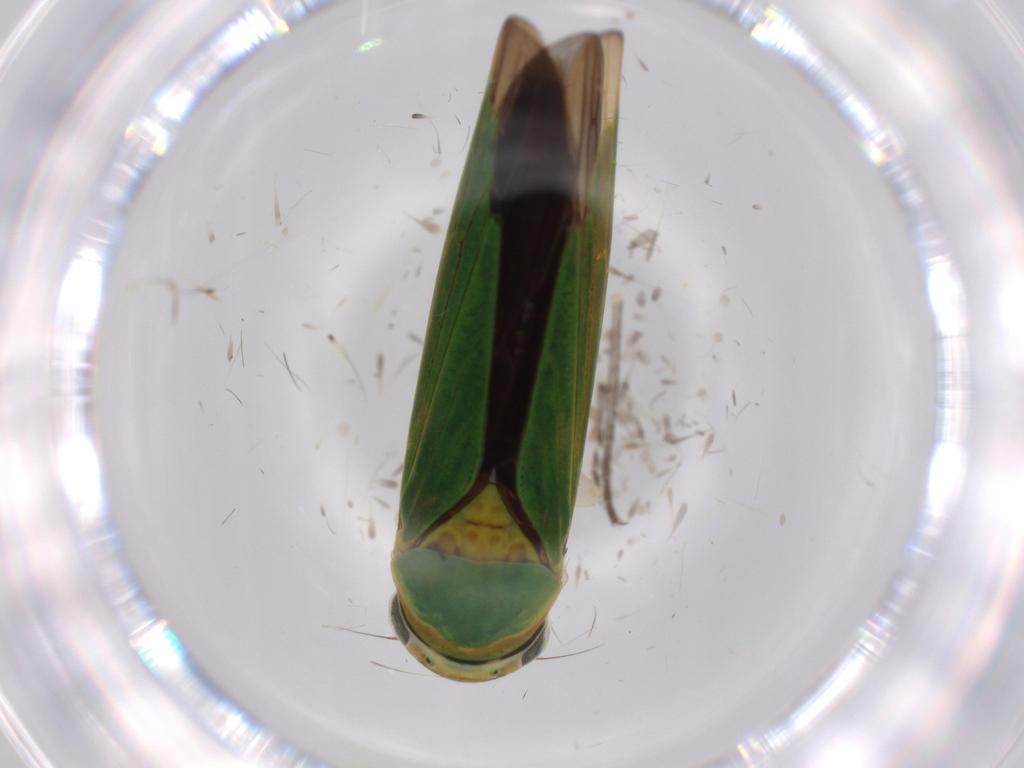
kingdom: Animalia
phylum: Arthropoda
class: Insecta
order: Hemiptera
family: Cicadellidae
